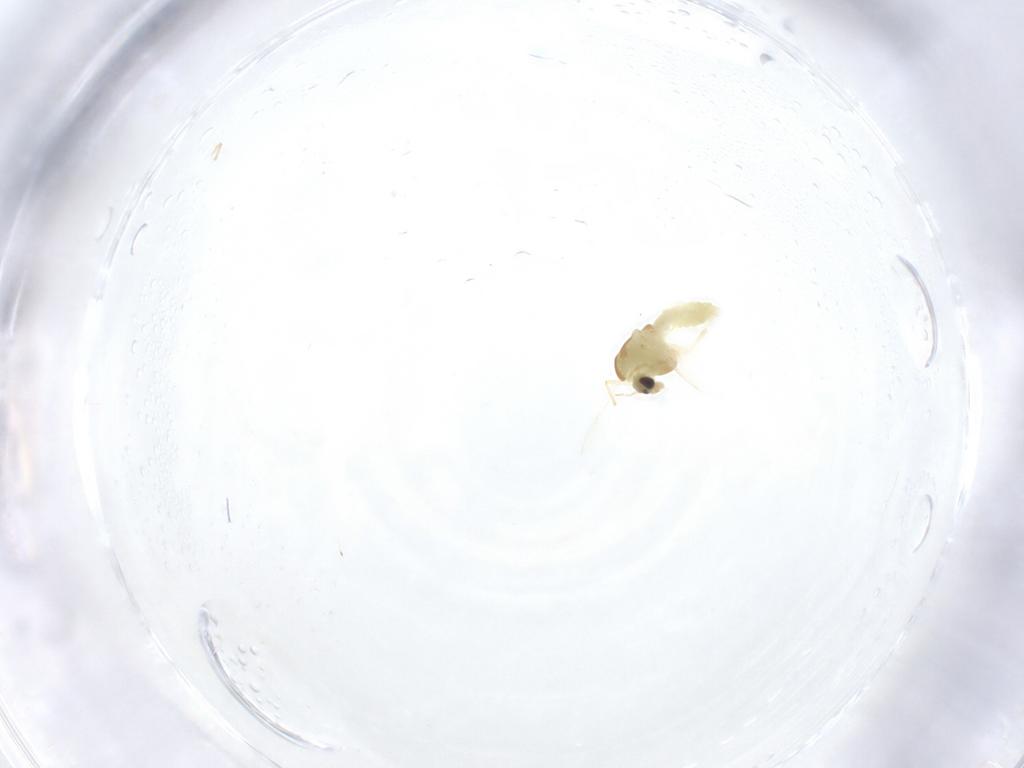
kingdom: Animalia
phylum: Arthropoda
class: Insecta
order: Diptera
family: Chironomidae
